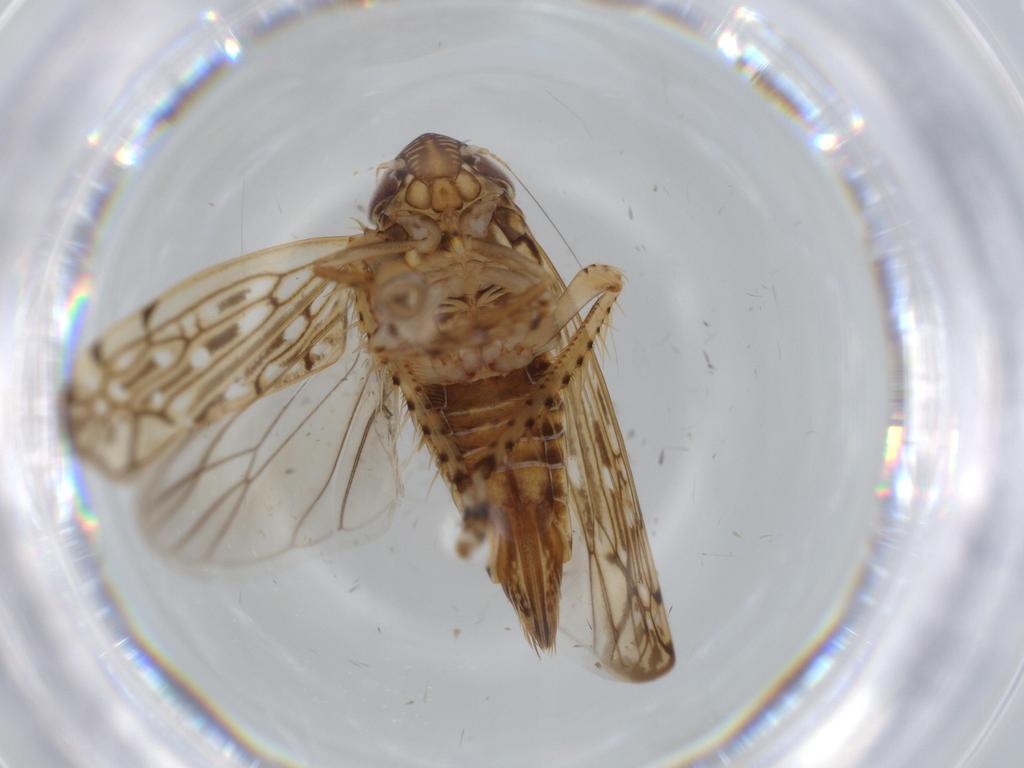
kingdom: Animalia
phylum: Arthropoda
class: Insecta
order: Hemiptera
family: Cicadellidae
